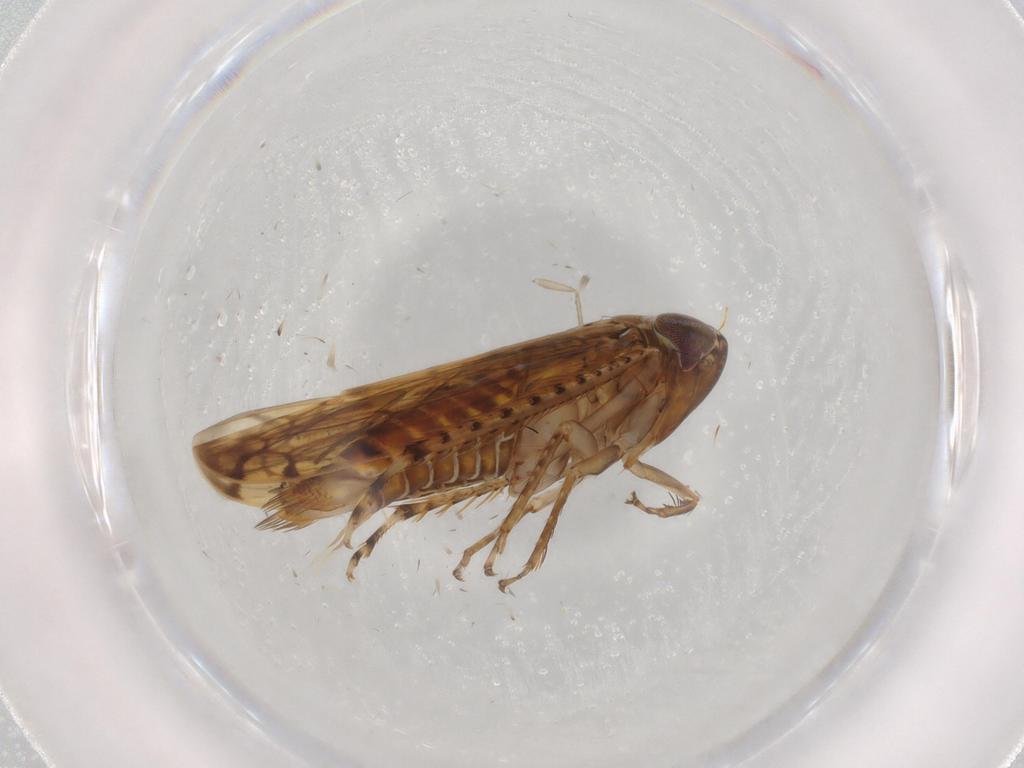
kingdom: Animalia
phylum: Arthropoda
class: Insecta
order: Hemiptera
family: Cicadellidae
